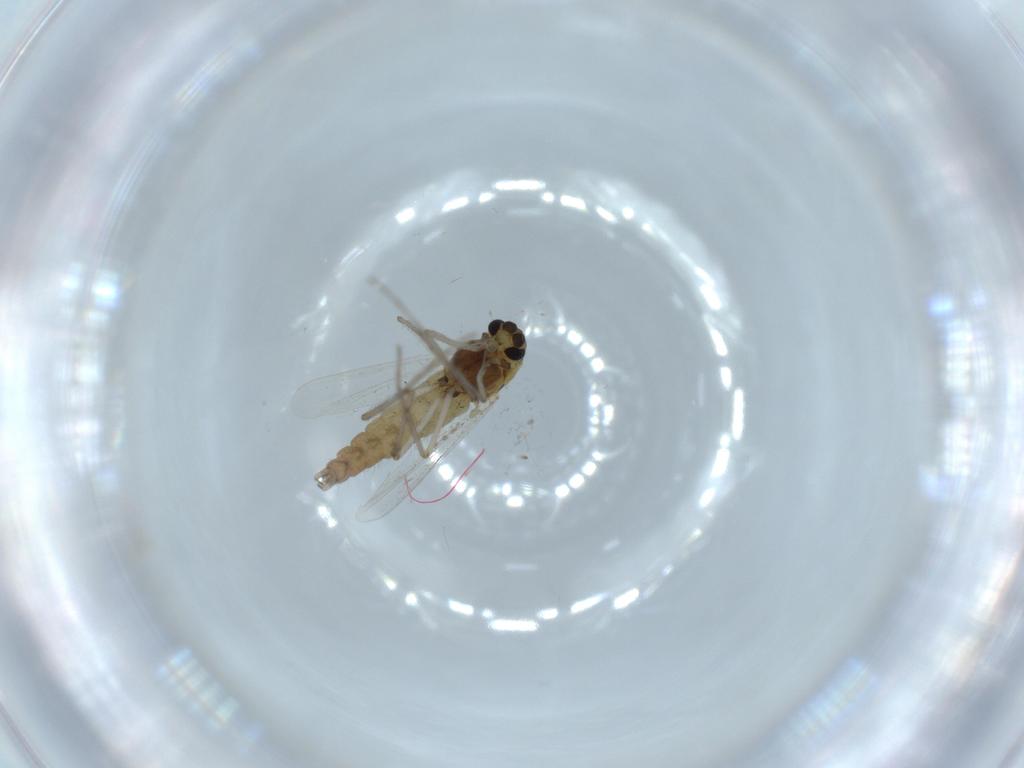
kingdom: Animalia
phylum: Arthropoda
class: Insecta
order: Diptera
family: Chironomidae
